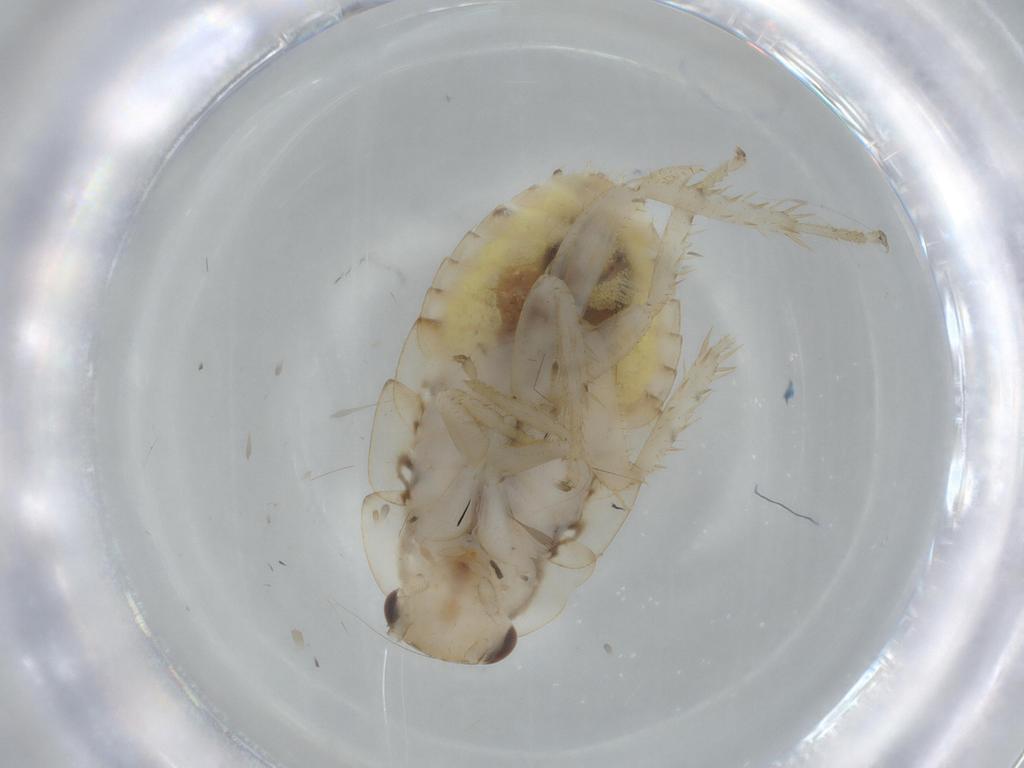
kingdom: Animalia
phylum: Arthropoda
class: Insecta
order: Blattodea
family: Ectobiidae
